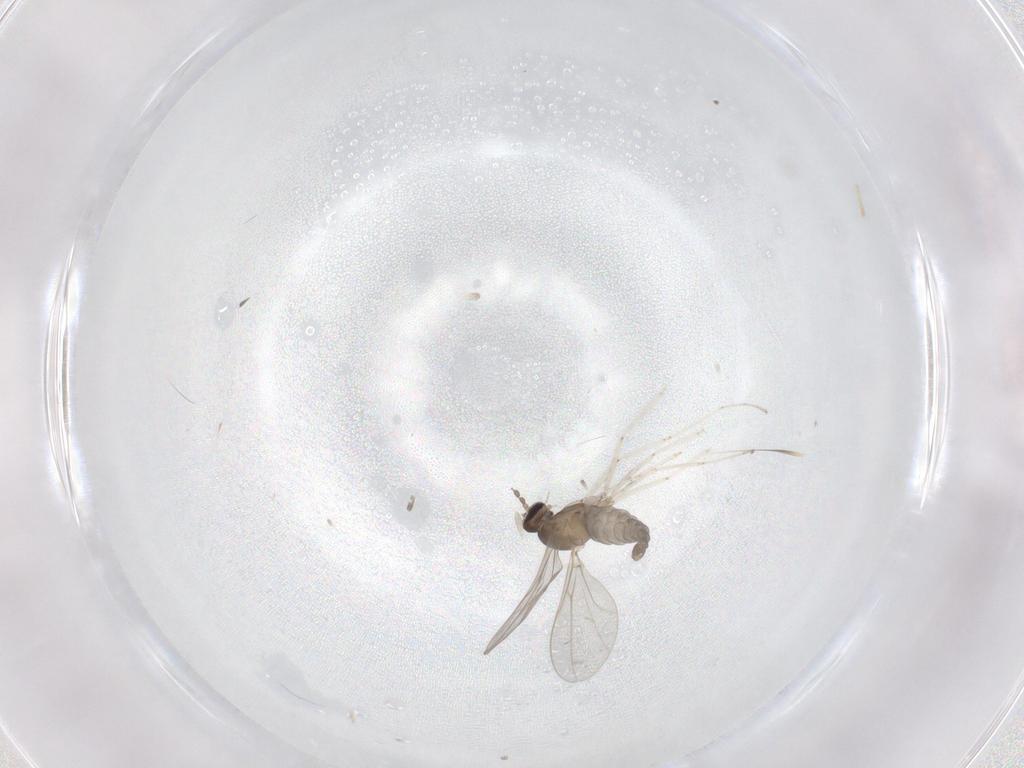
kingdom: Animalia
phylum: Arthropoda
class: Insecta
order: Diptera
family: Cecidomyiidae
